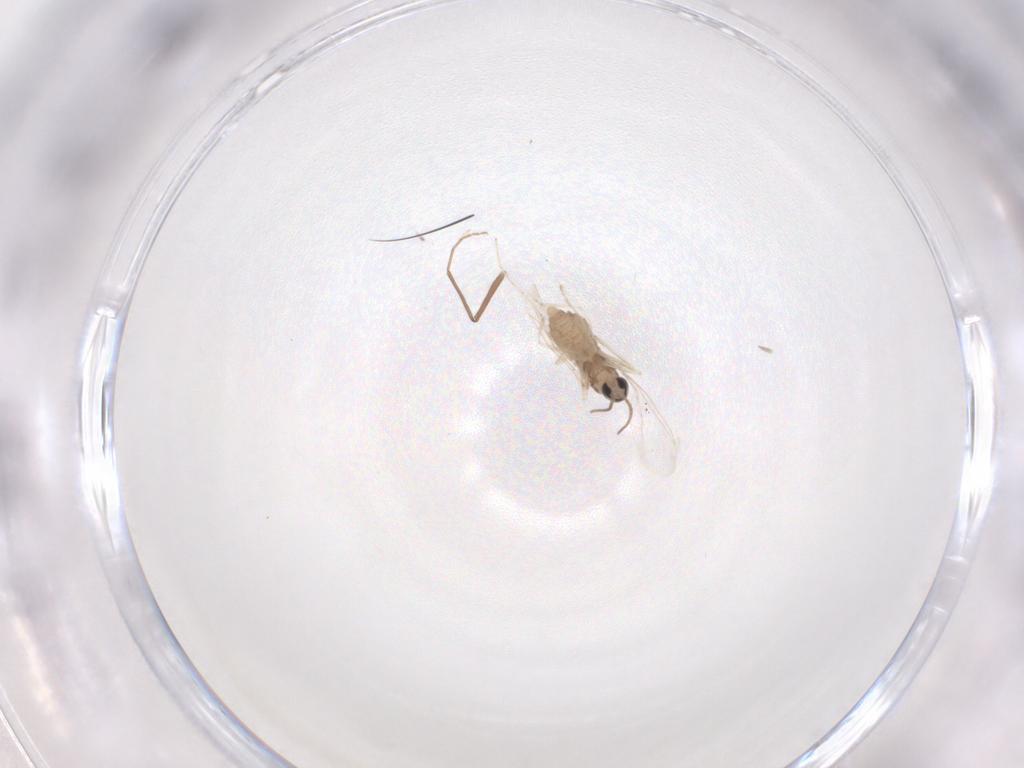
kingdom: Animalia
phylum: Arthropoda
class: Insecta
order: Diptera
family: Cecidomyiidae
